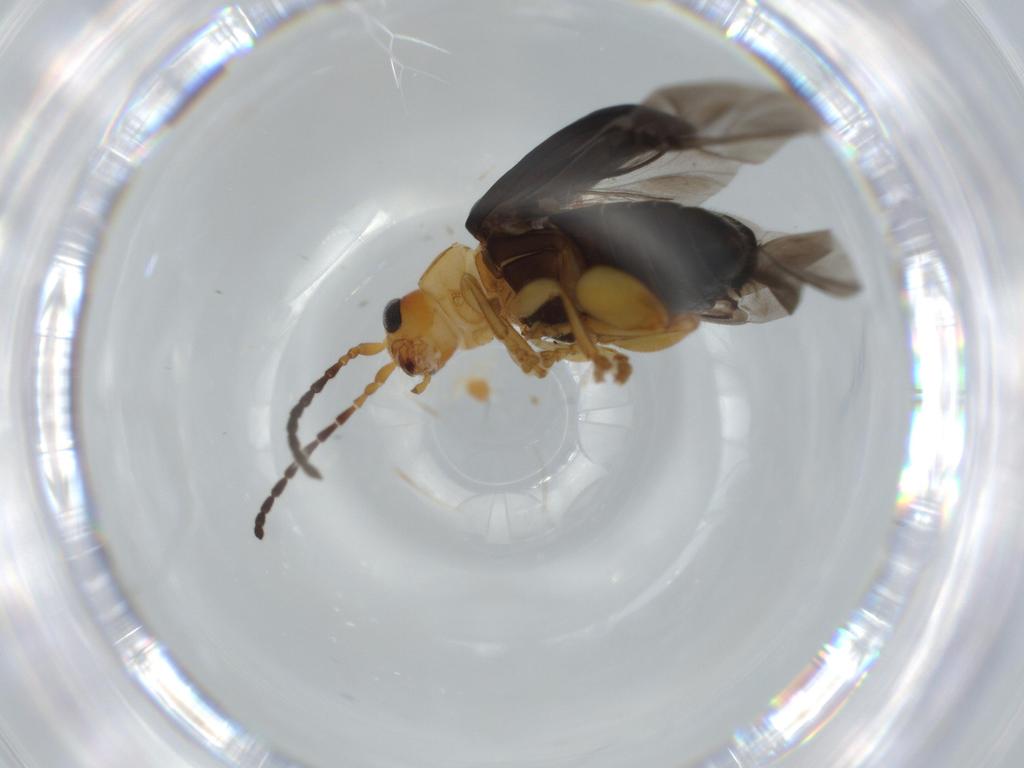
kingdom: Animalia
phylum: Arthropoda
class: Insecta
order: Coleoptera
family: Chrysomelidae
